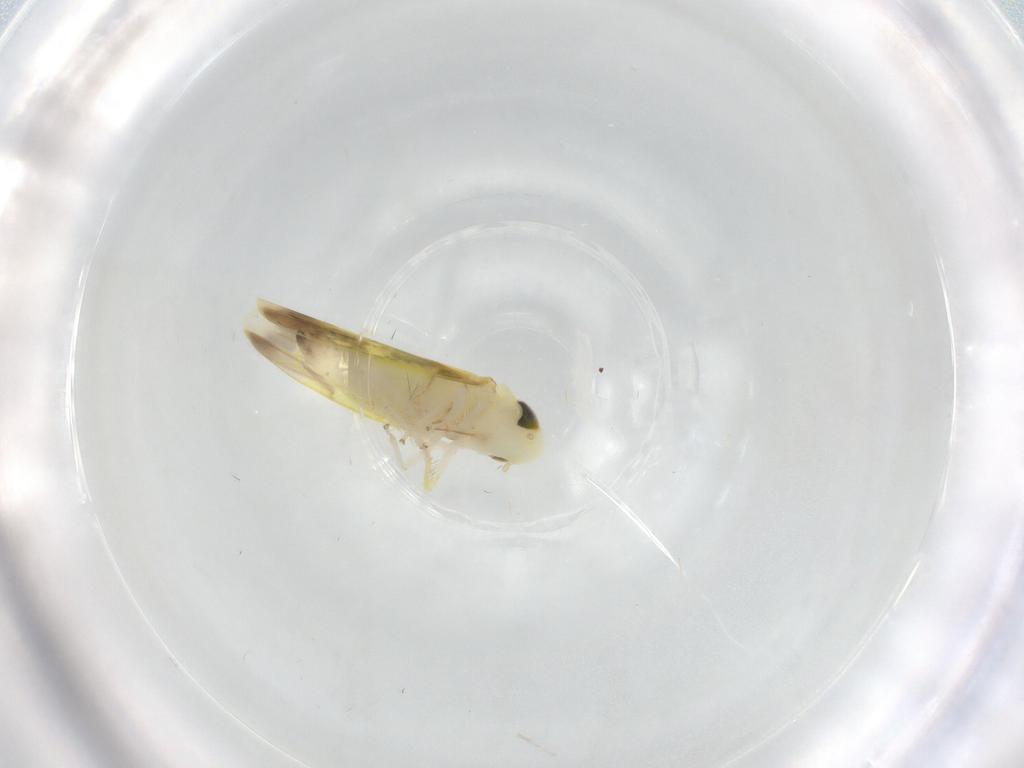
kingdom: Animalia
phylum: Arthropoda
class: Insecta
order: Hemiptera
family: Cicadellidae
